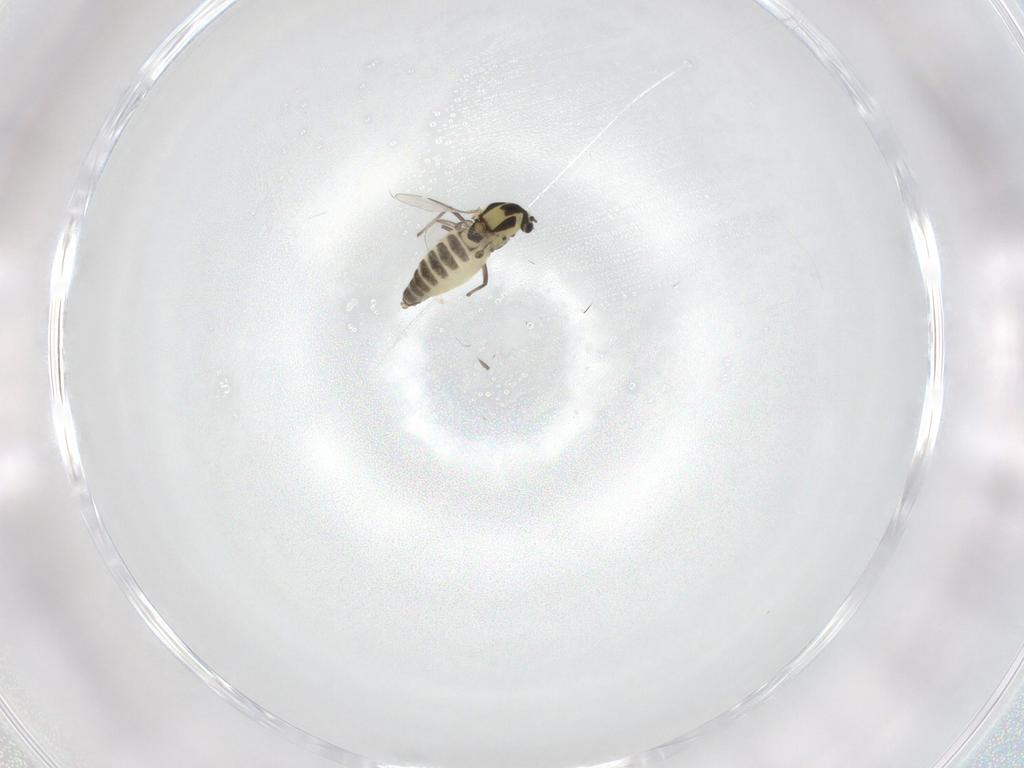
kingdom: Animalia
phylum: Arthropoda
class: Insecta
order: Diptera
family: Chironomidae
